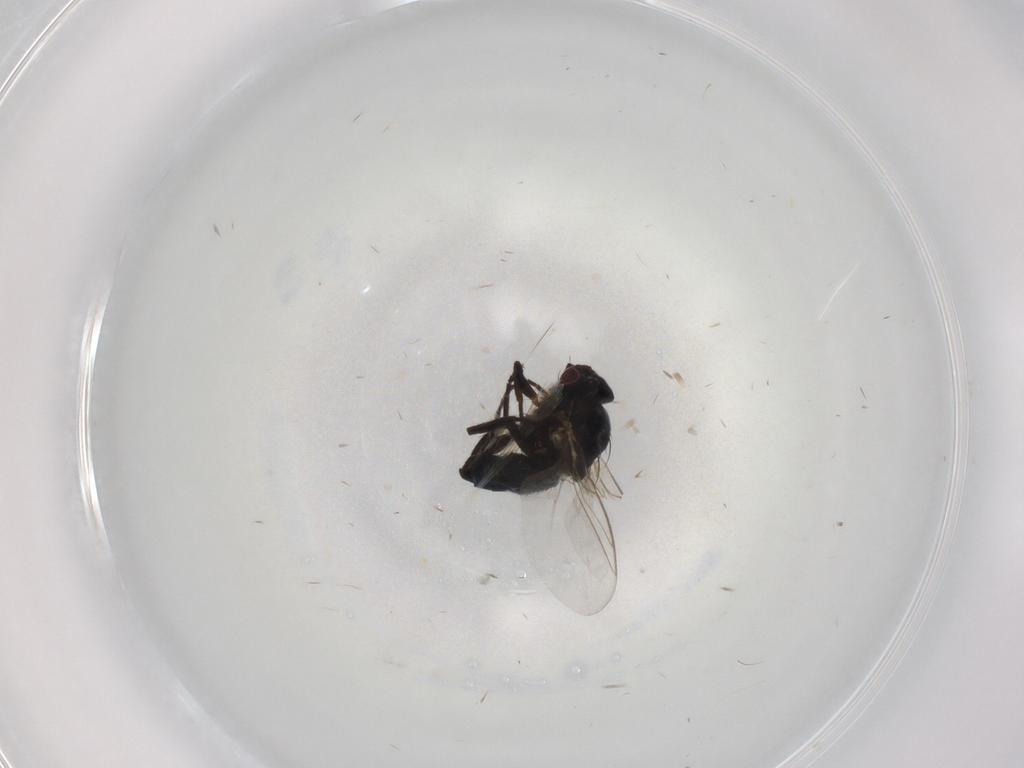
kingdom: Animalia
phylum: Arthropoda
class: Insecta
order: Diptera
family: Agromyzidae
